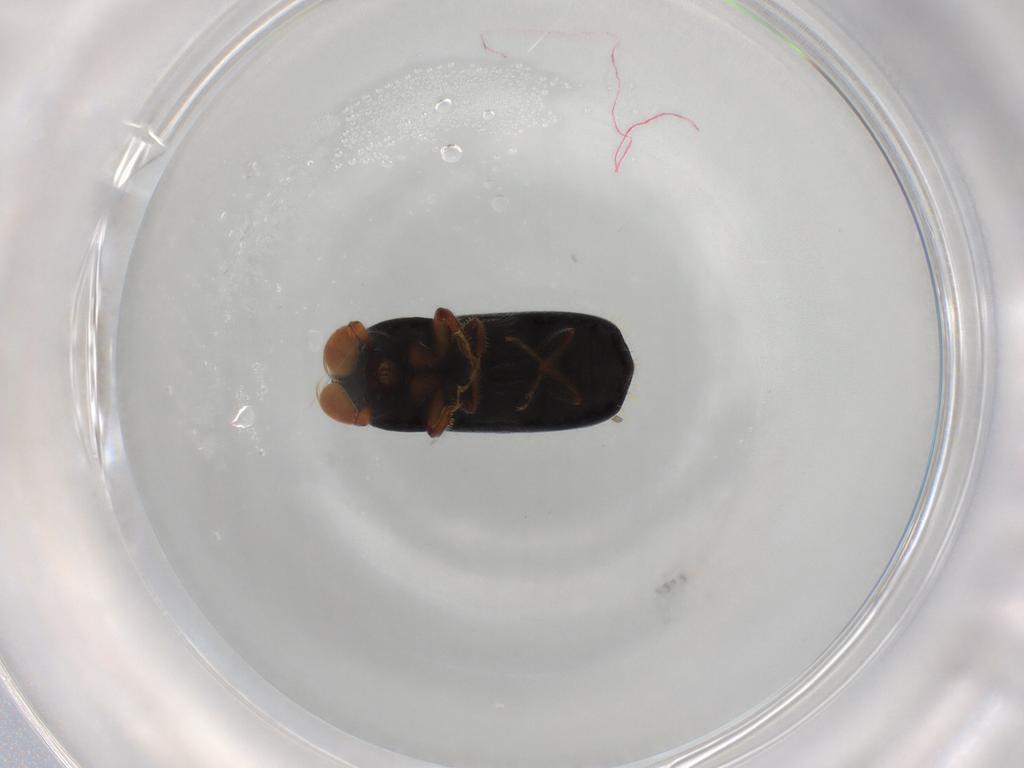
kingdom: Animalia
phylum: Arthropoda
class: Insecta
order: Coleoptera
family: Curculionidae
